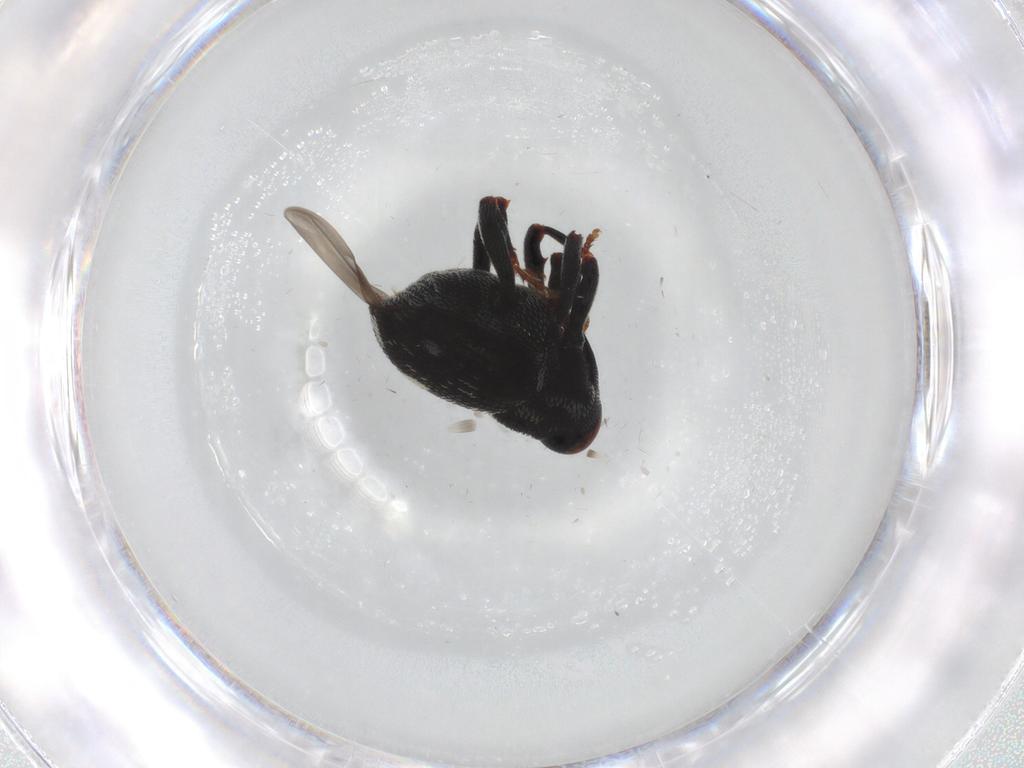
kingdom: Animalia
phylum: Arthropoda
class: Insecta
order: Coleoptera
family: Curculionidae
